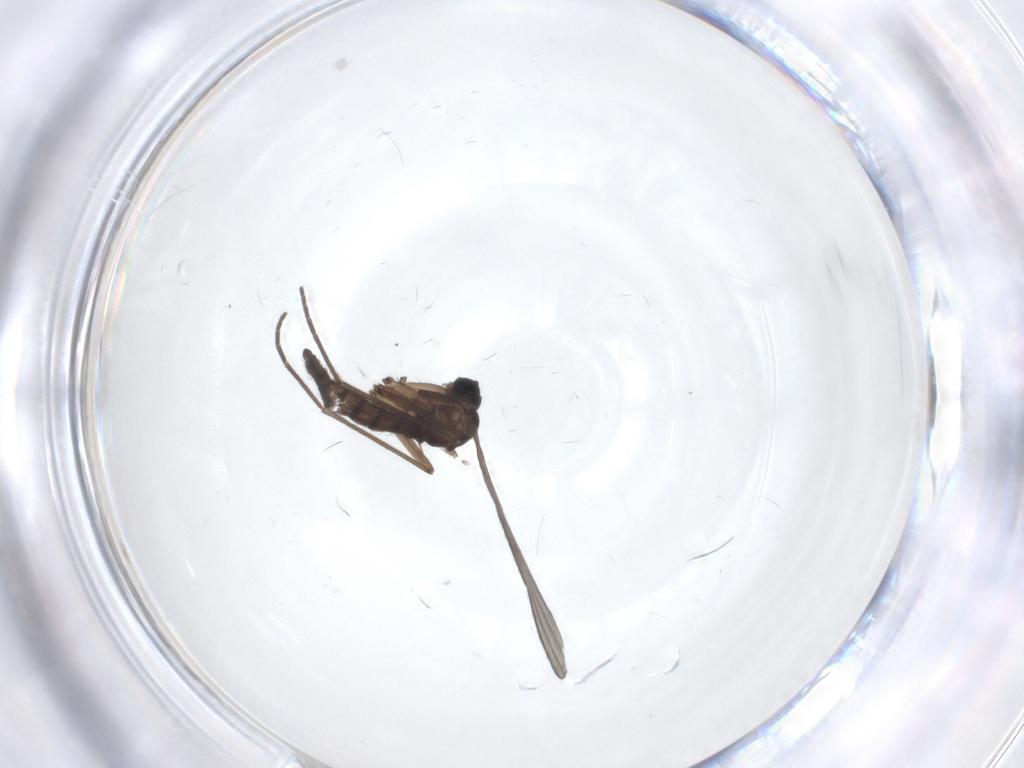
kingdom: Animalia
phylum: Arthropoda
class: Insecta
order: Diptera
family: Sciaridae
